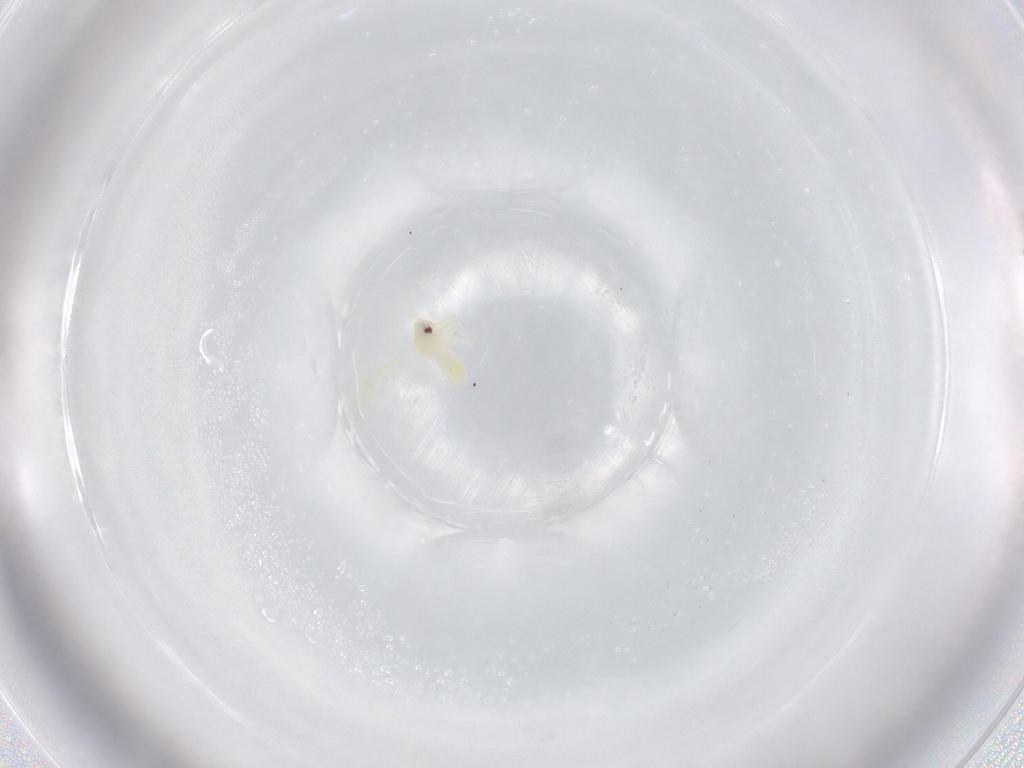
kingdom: Animalia
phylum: Arthropoda
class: Insecta
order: Hemiptera
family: Aleyrodidae
